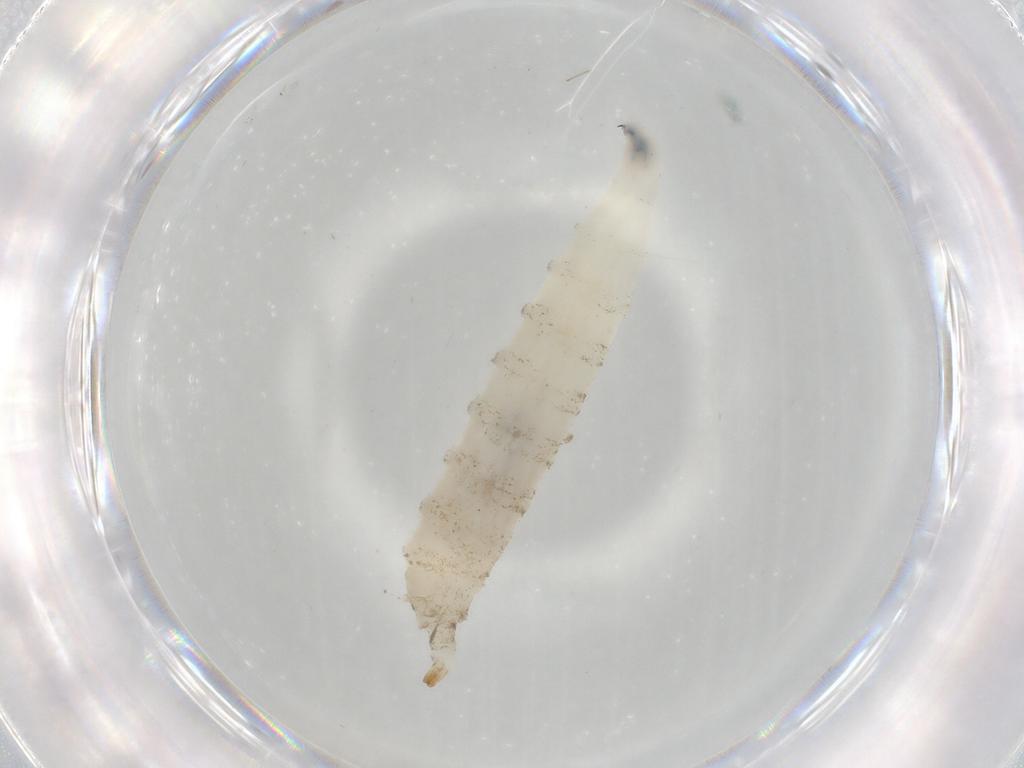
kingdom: Animalia
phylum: Arthropoda
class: Insecta
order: Diptera
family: Drosophilidae
